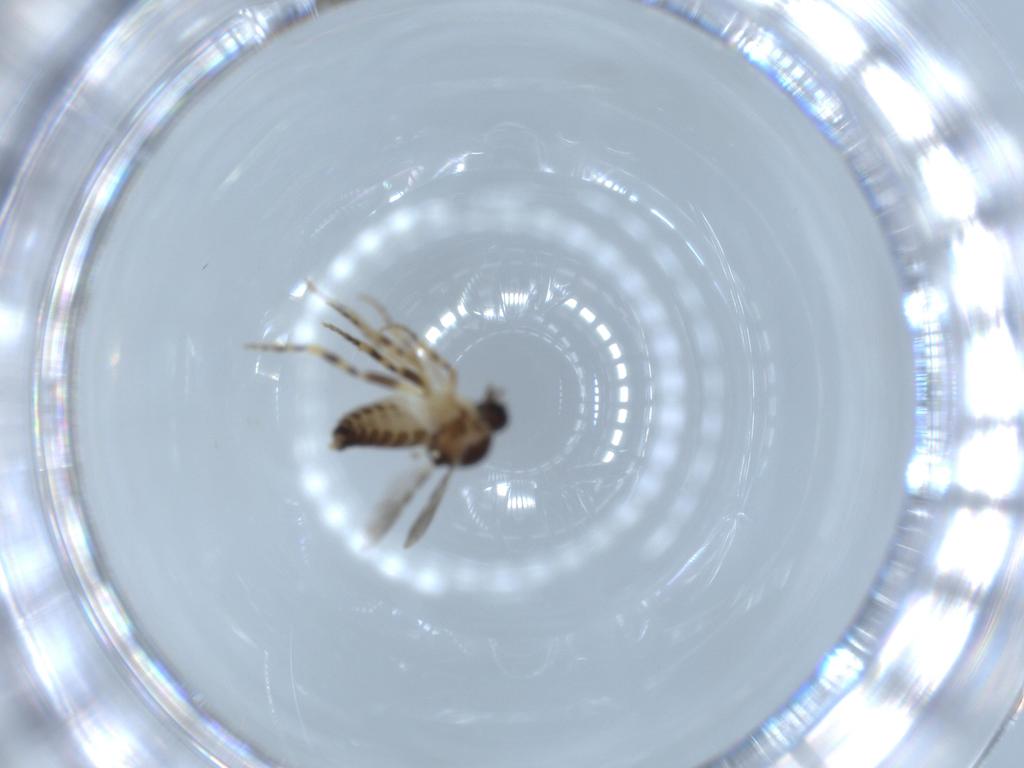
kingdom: Animalia
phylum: Arthropoda
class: Insecta
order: Diptera
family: Ceratopogonidae
